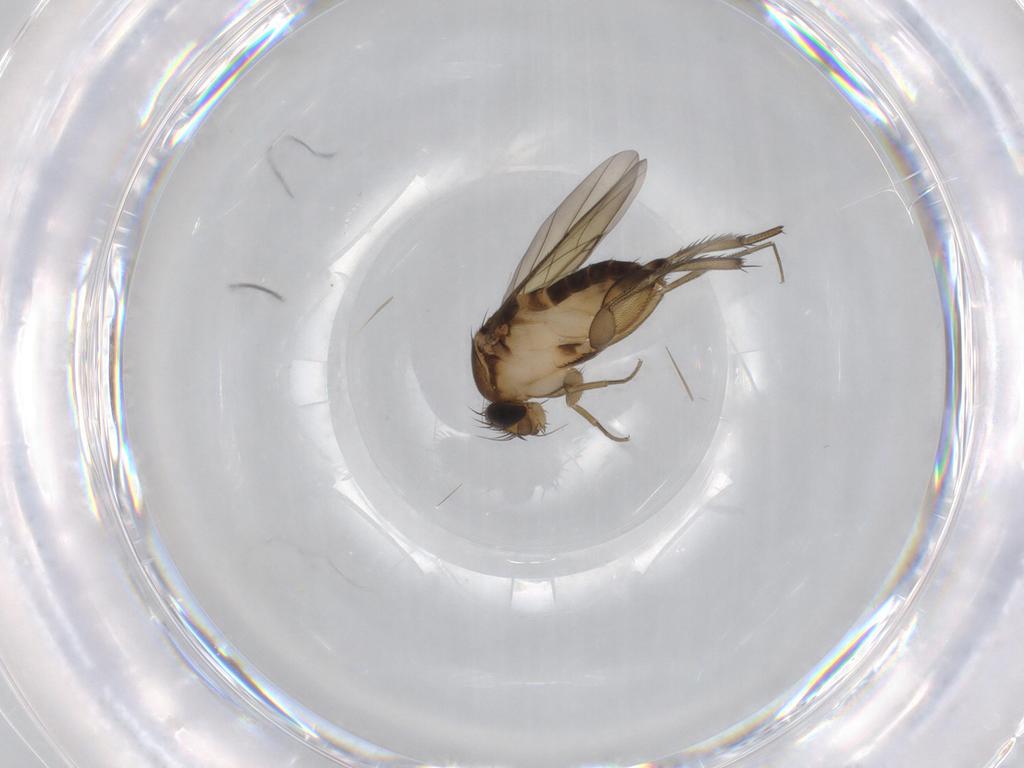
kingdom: Animalia
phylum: Arthropoda
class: Insecta
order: Diptera
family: Phoridae
